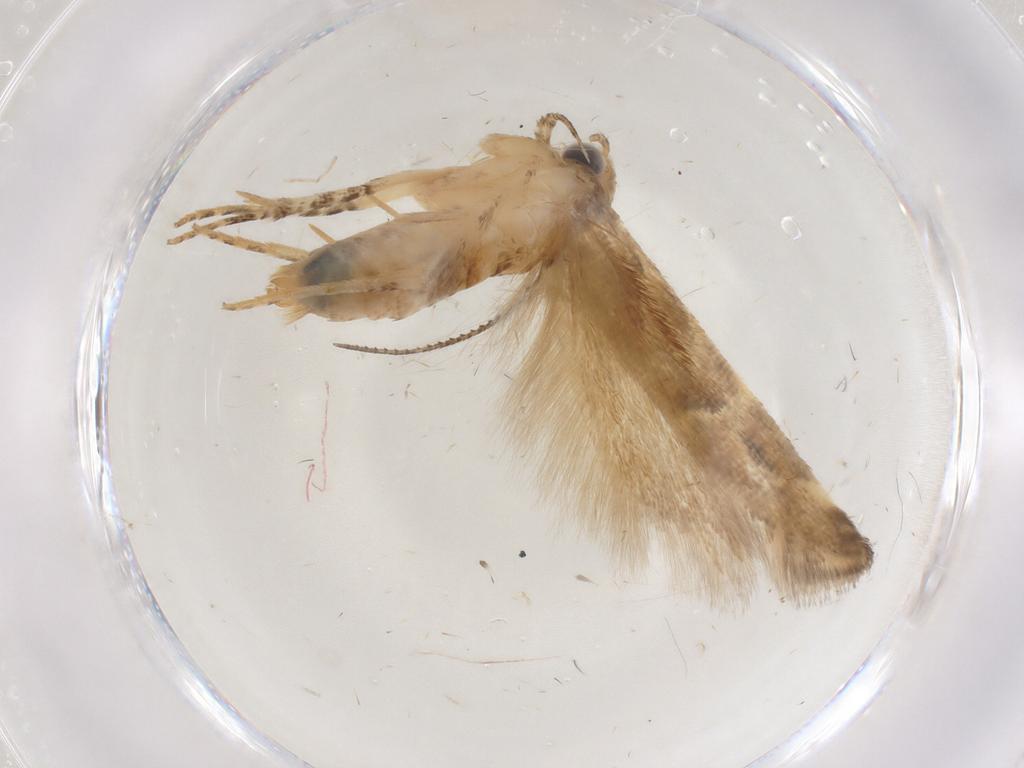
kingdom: Animalia
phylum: Arthropoda
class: Insecta
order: Lepidoptera
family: Gelechiidae
